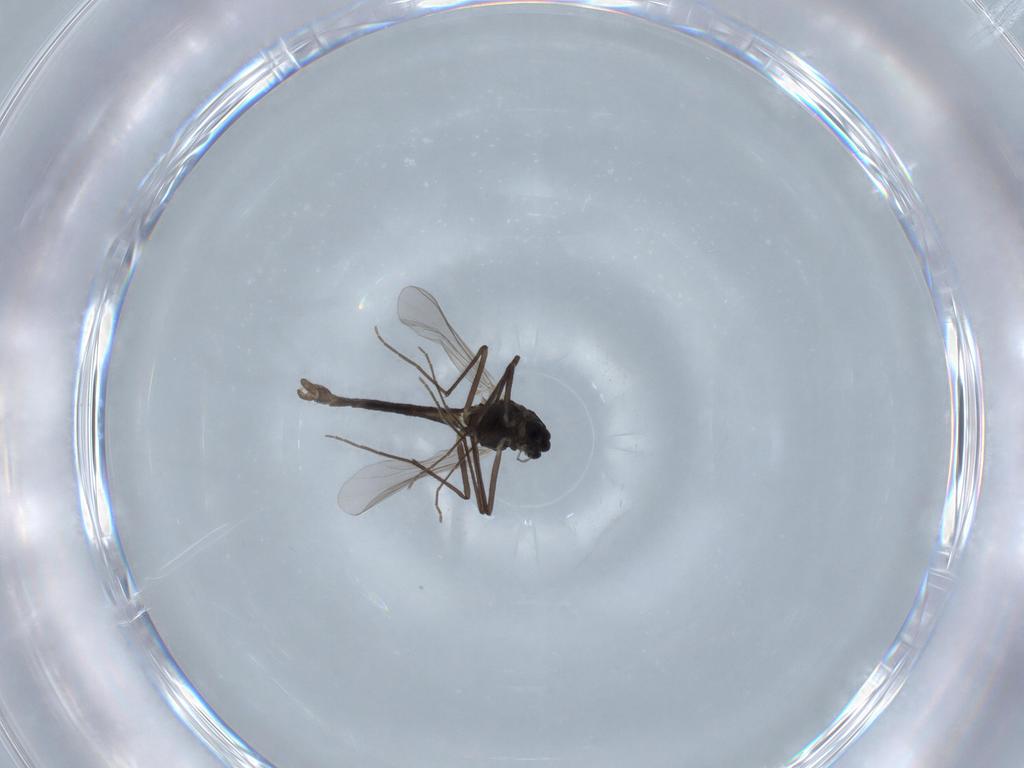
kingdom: Animalia
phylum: Arthropoda
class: Insecta
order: Diptera
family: Chironomidae
